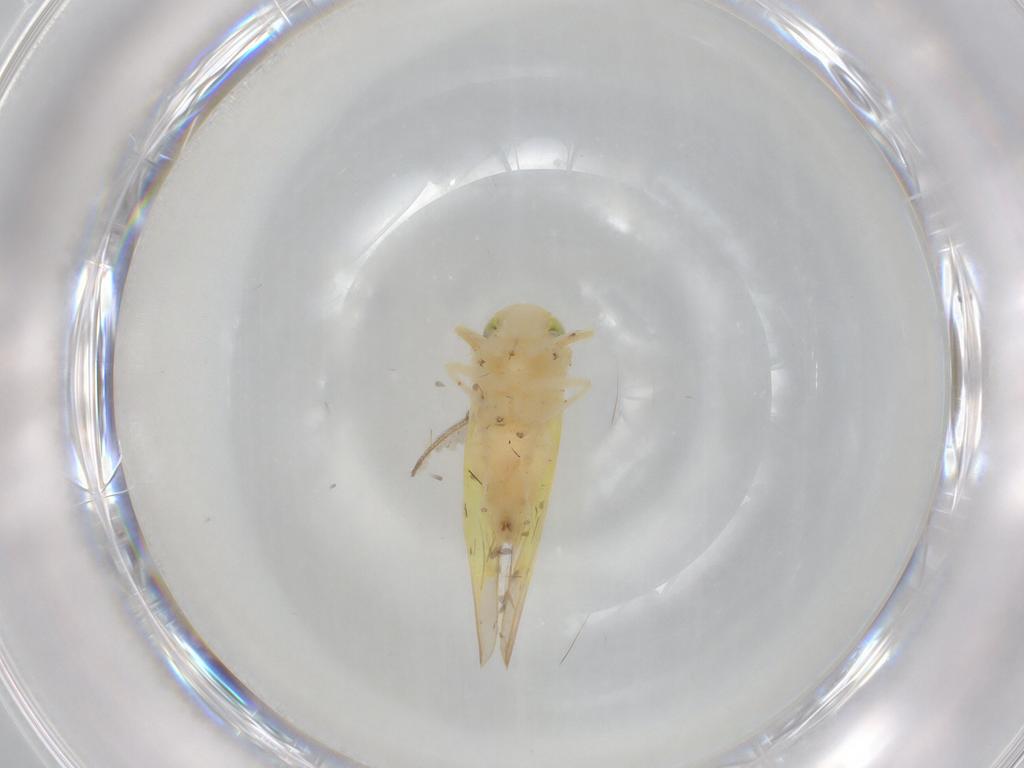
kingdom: Animalia
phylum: Arthropoda
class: Insecta
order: Hemiptera
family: Cicadellidae
